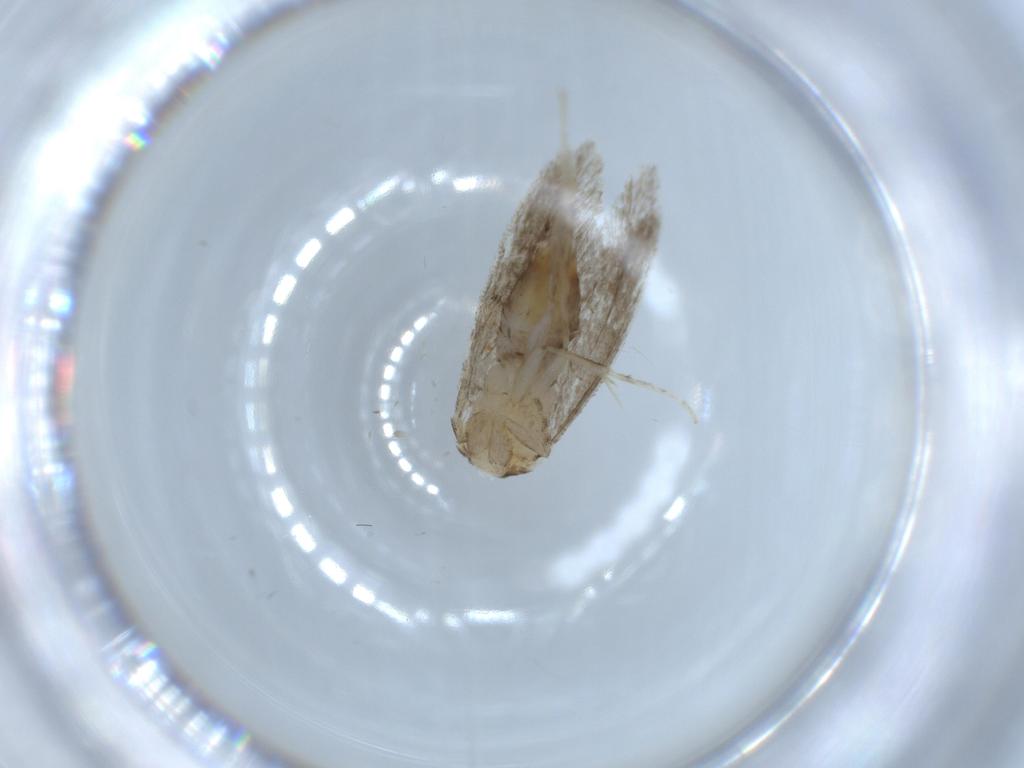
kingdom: Animalia
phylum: Arthropoda
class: Insecta
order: Lepidoptera
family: Tineidae
